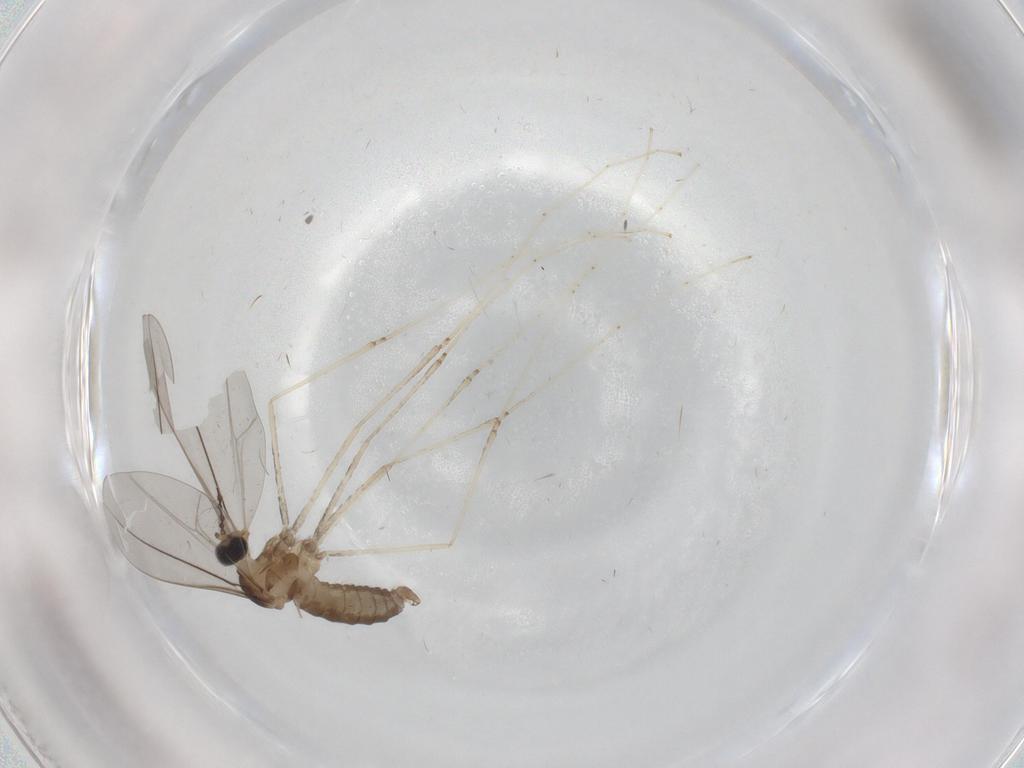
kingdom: Animalia
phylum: Arthropoda
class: Insecta
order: Diptera
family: Cecidomyiidae
